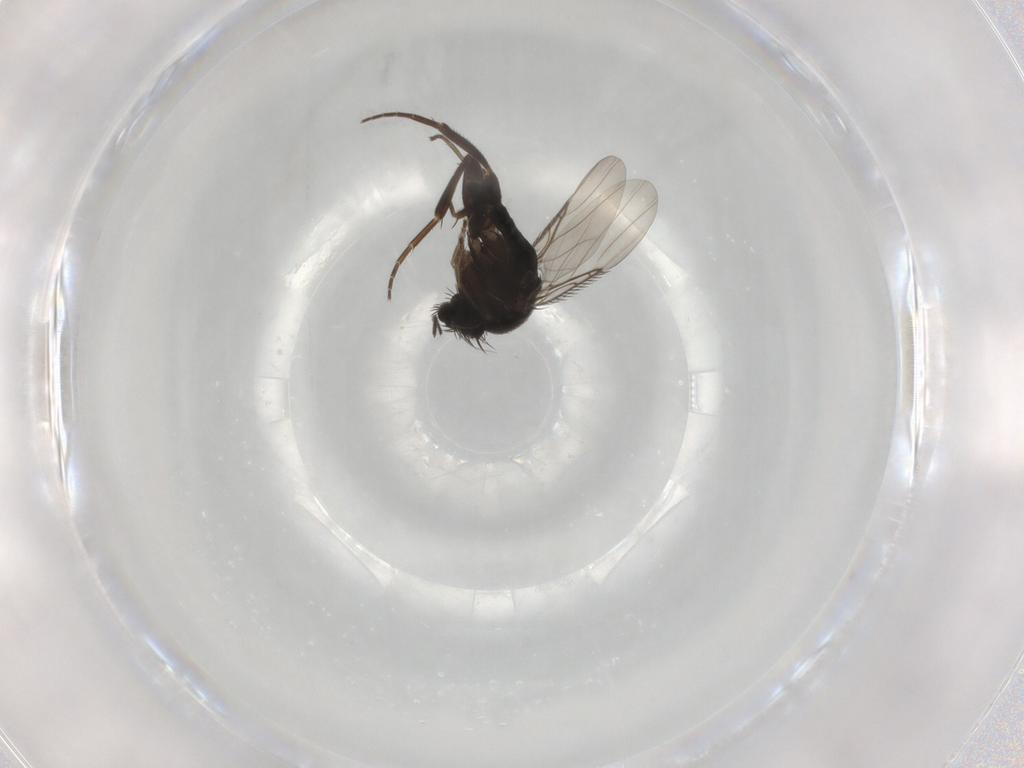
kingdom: Animalia
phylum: Arthropoda
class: Insecta
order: Diptera
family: Phoridae
